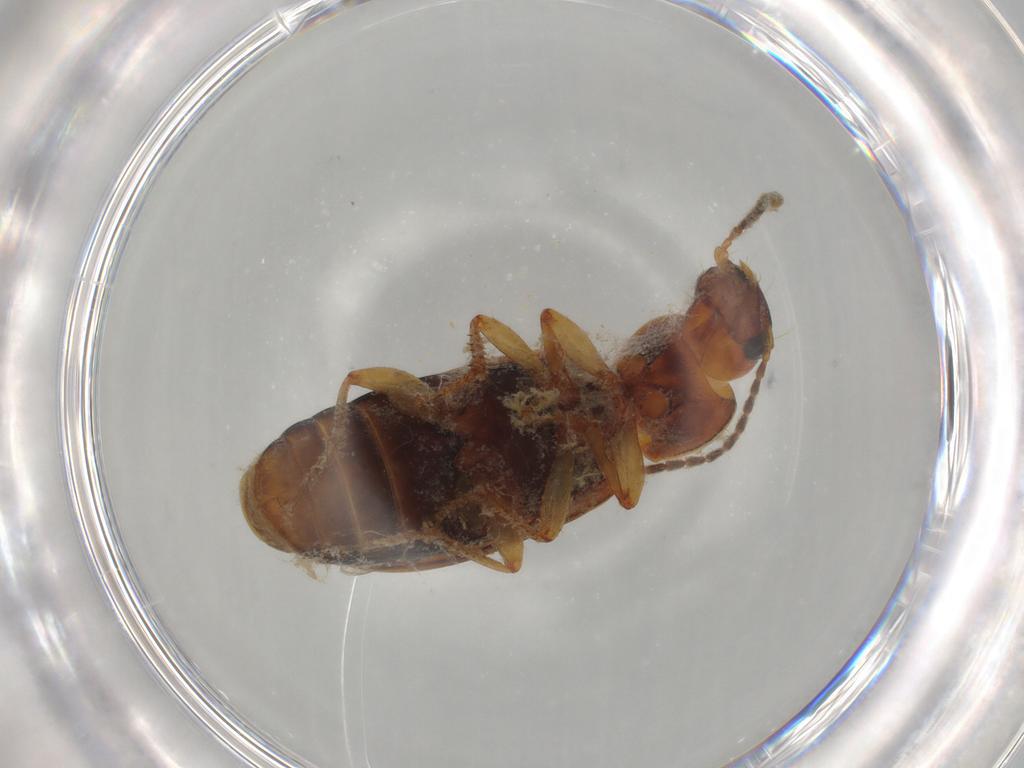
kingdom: Animalia
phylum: Arthropoda
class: Insecta
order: Coleoptera
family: Carabidae
